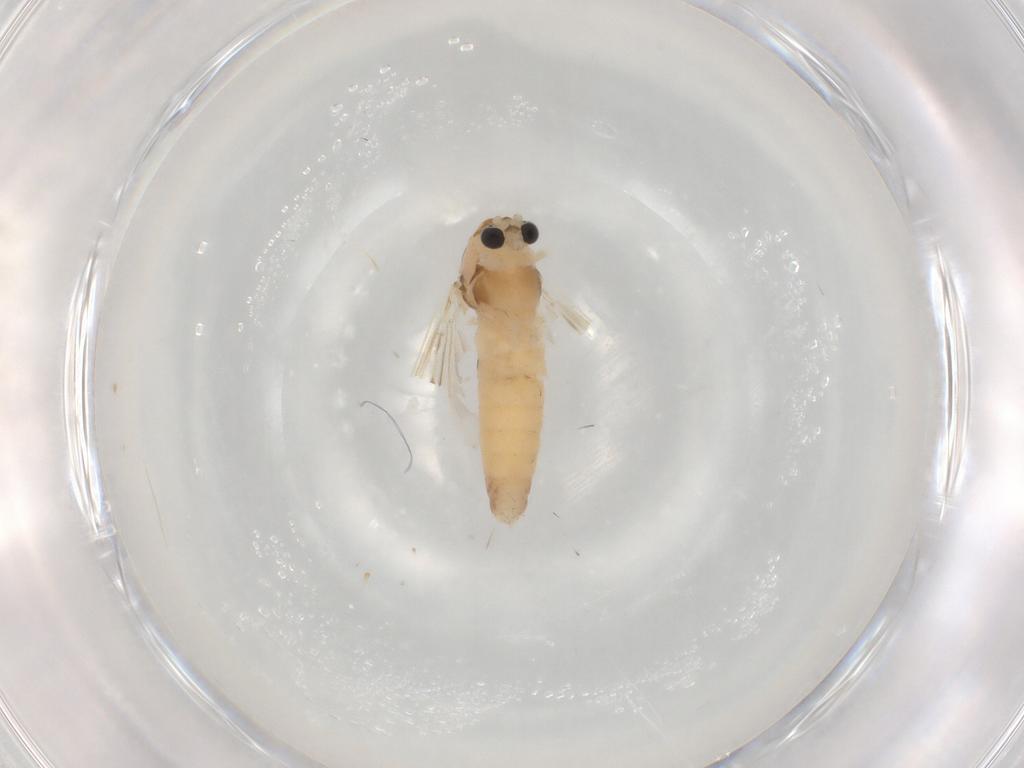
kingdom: Animalia
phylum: Arthropoda
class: Insecta
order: Diptera
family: Chironomidae
